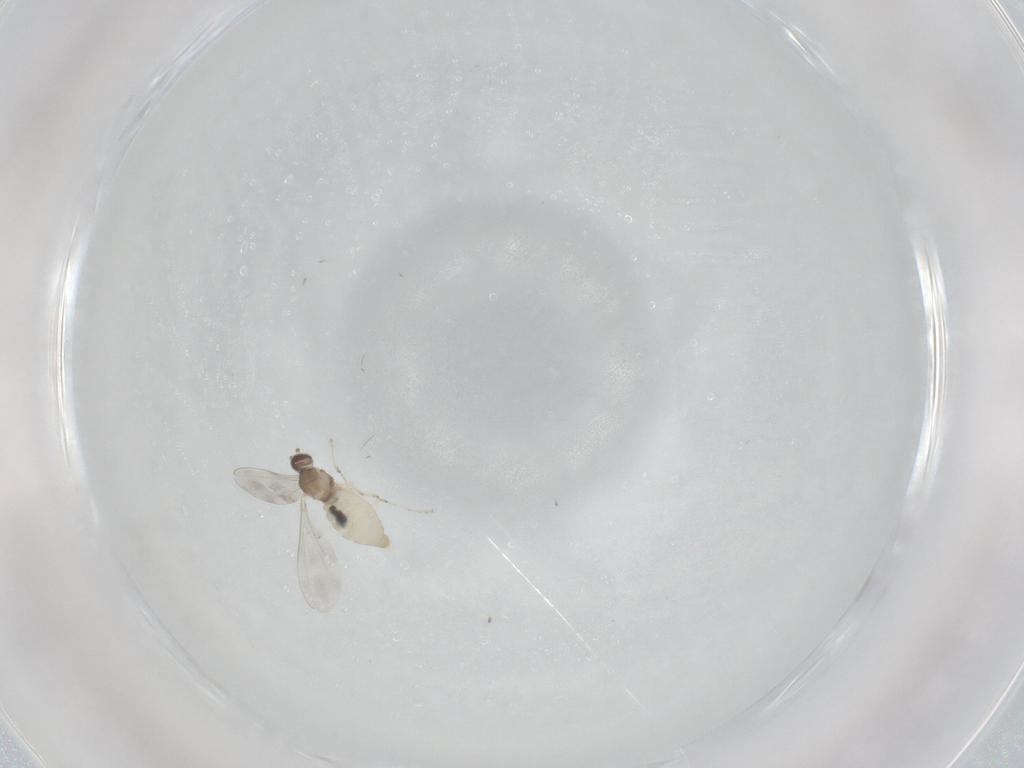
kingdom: Animalia
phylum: Arthropoda
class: Insecta
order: Diptera
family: Cecidomyiidae
